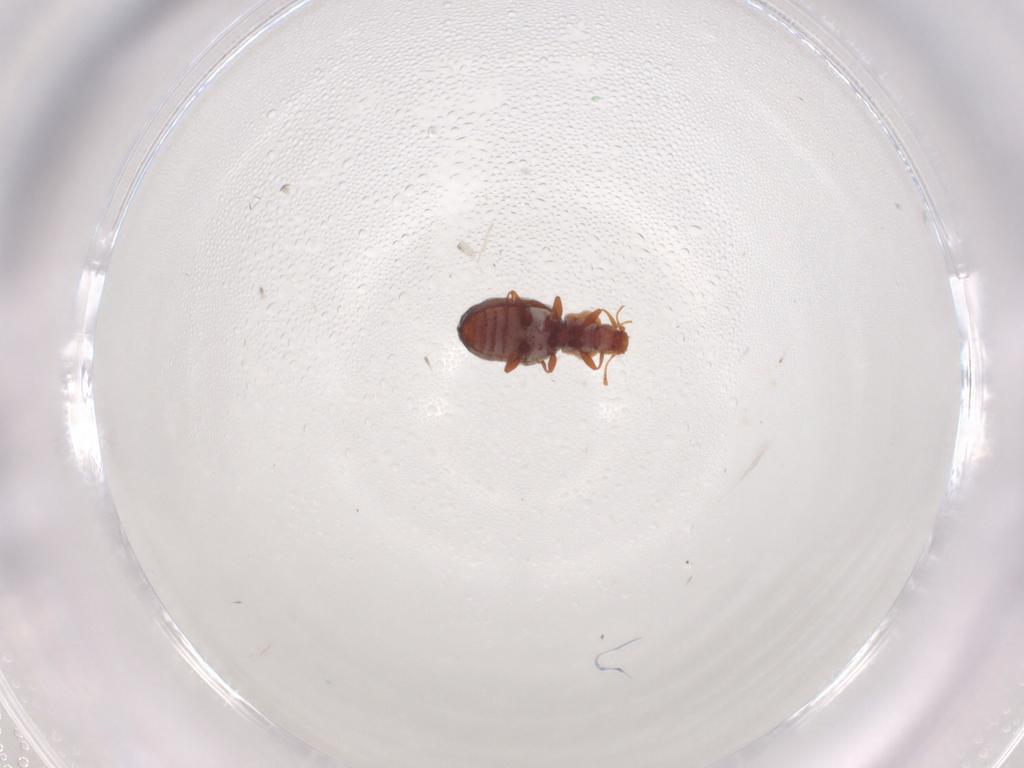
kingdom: Animalia
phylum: Arthropoda
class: Insecta
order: Coleoptera
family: Latridiidae
